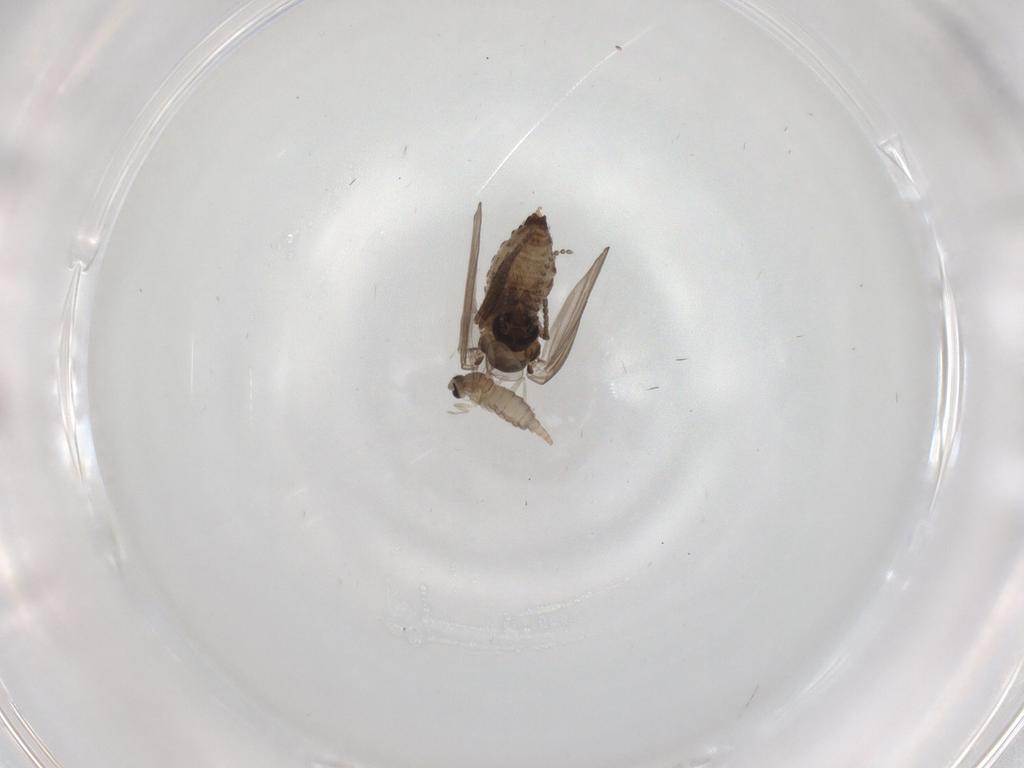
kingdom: Animalia
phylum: Arthropoda
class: Insecta
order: Diptera
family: Psychodidae
